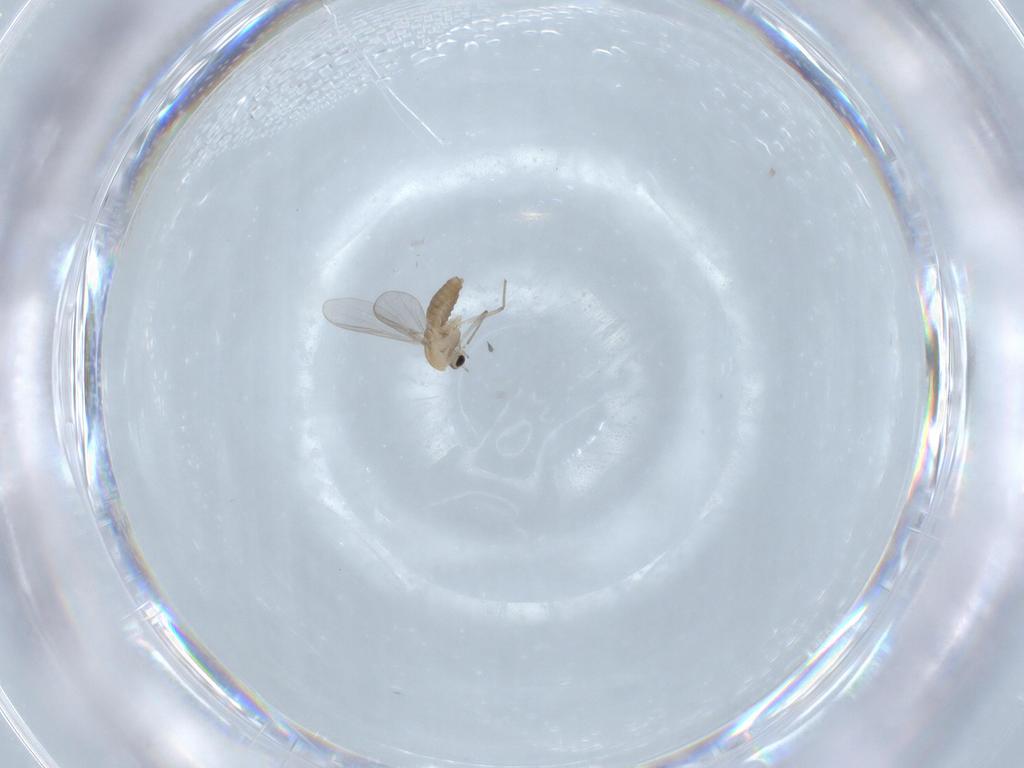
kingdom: Animalia
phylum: Arthropoda
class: Insecta
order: Diptera
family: Chironomidae
